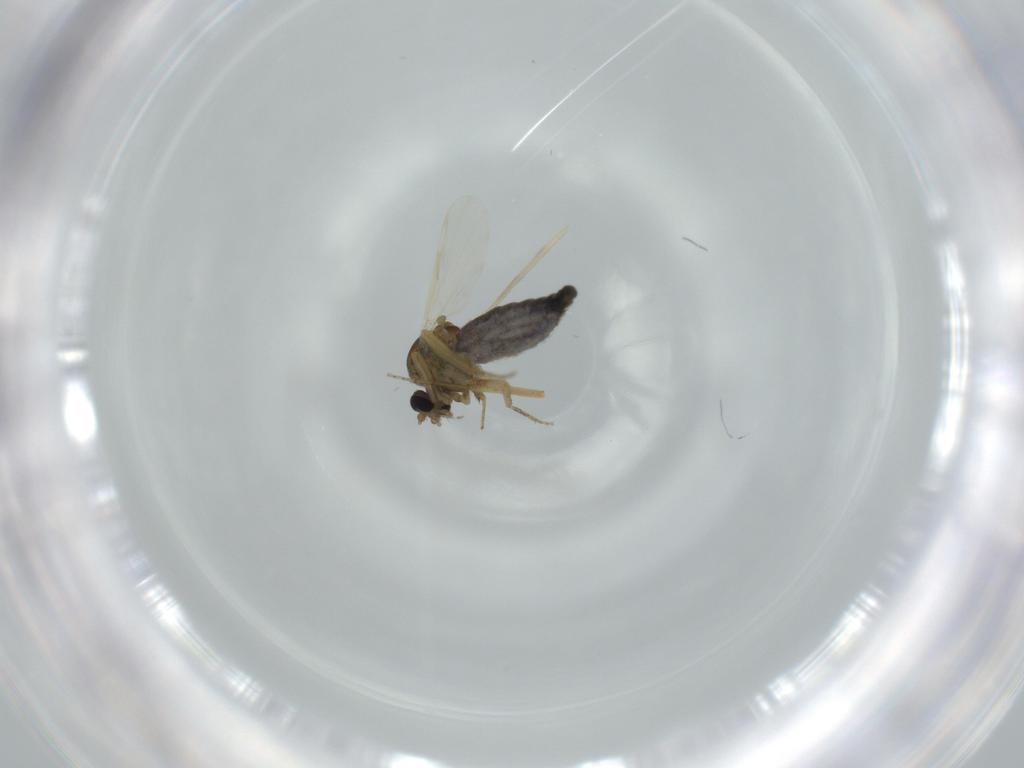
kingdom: Animalia
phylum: Arthropoda
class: Insecta
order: Diptera
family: Ceratopogonidae
